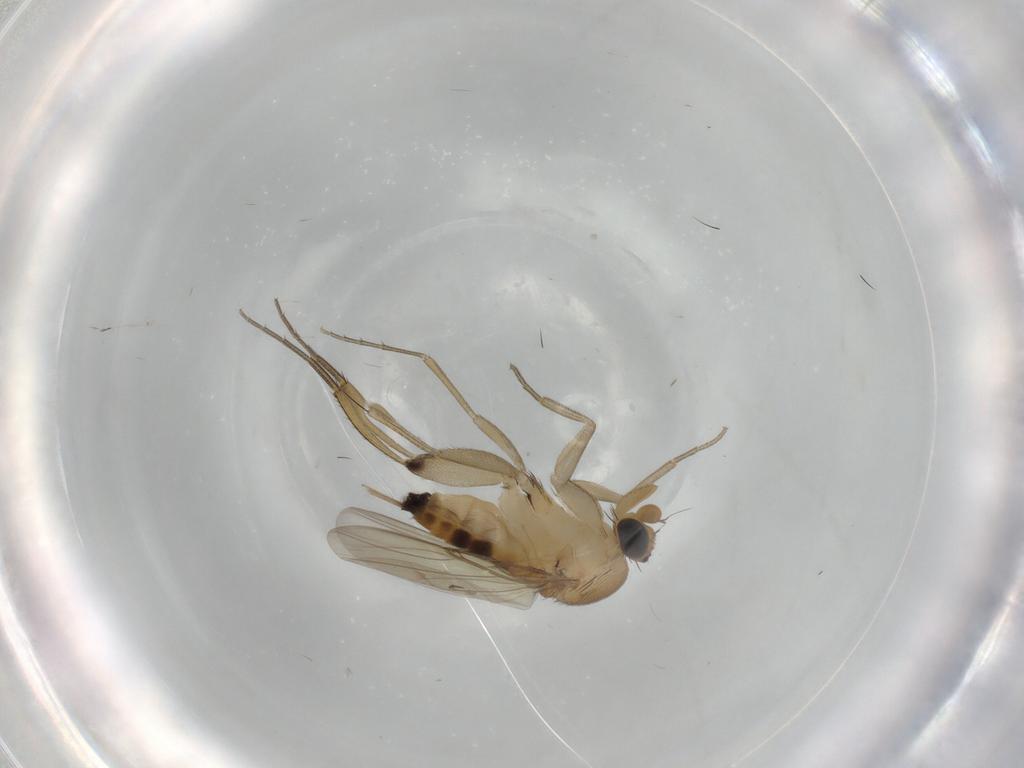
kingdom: Animalia
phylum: Arthropoda
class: Insecta
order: Diptera
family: Phoridae
